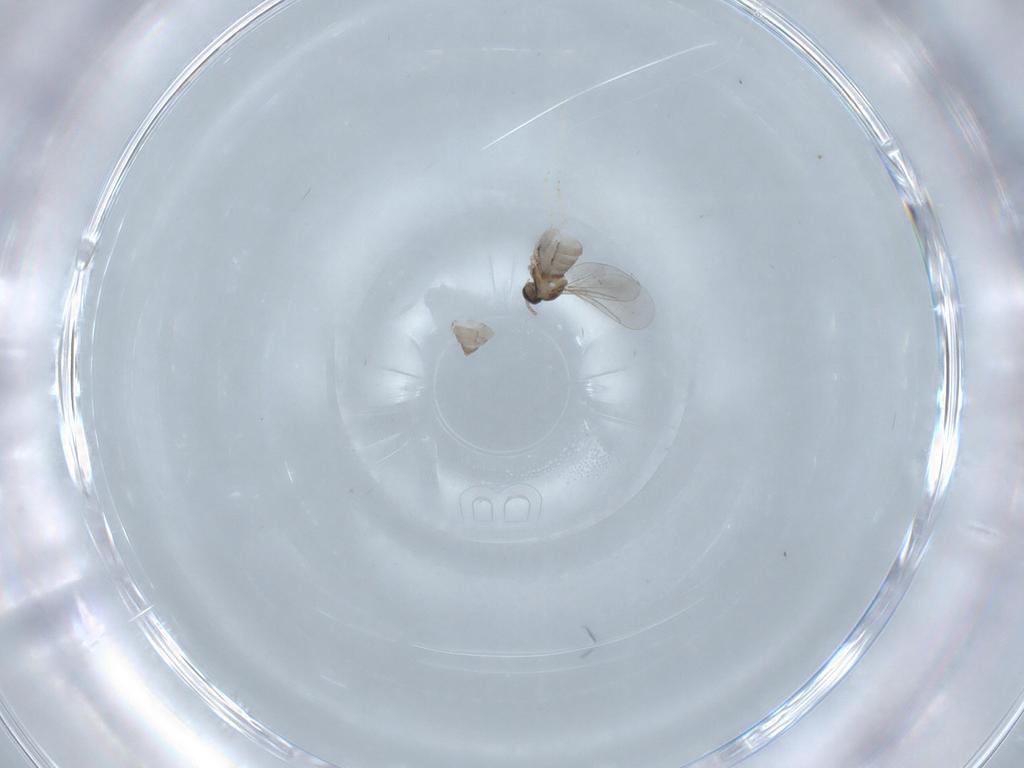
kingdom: Animalia
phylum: Arthropoda
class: Insecta
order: Diptera
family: Cecidomyiidae
